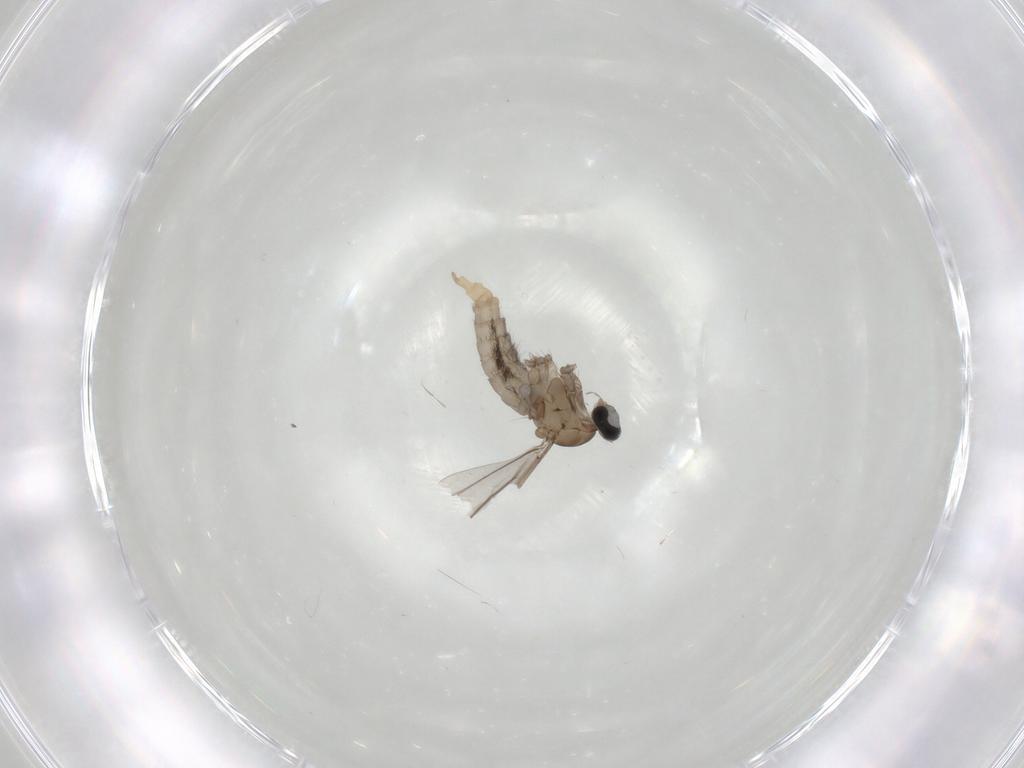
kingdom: Animalia
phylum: Arthropoda
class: Insecta
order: Diptera
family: Cecidomyiidae
